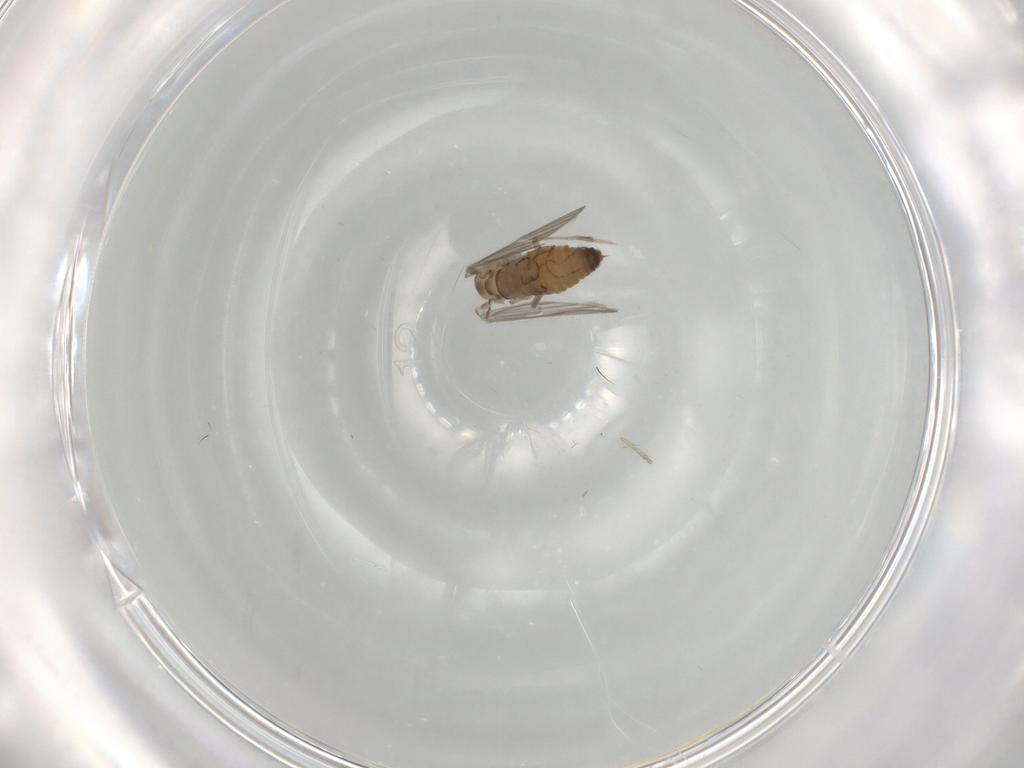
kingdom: Animalia
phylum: Arthropoda
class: Insecta
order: Diptera
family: Psychodidae
